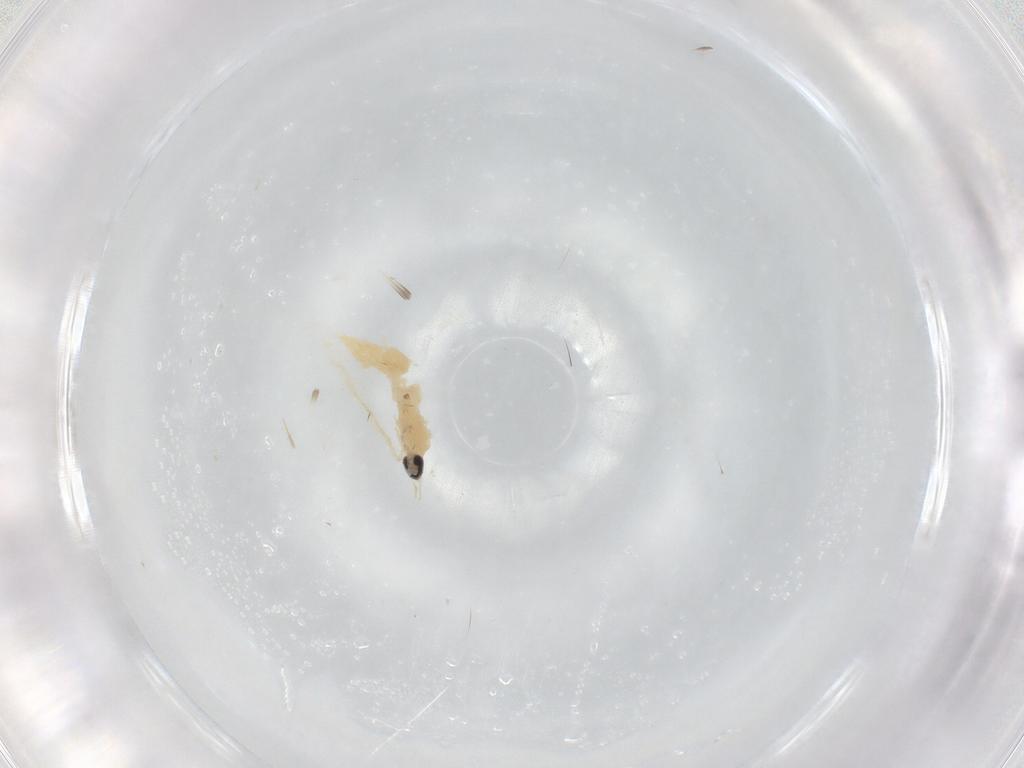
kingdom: Animalia
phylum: Arthropoda
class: Insecta
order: Diptera
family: Cecidomyiidae
